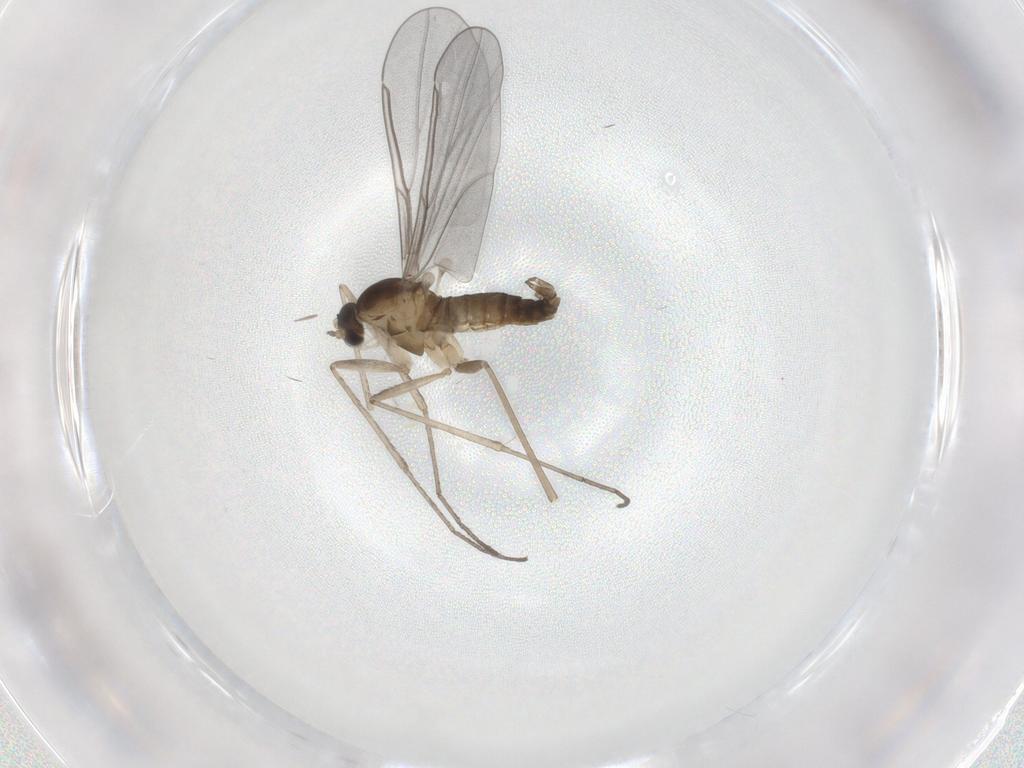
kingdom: Animalia
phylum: Arthropoda
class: Insecta
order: Diptera
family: Cecidomyiidae
